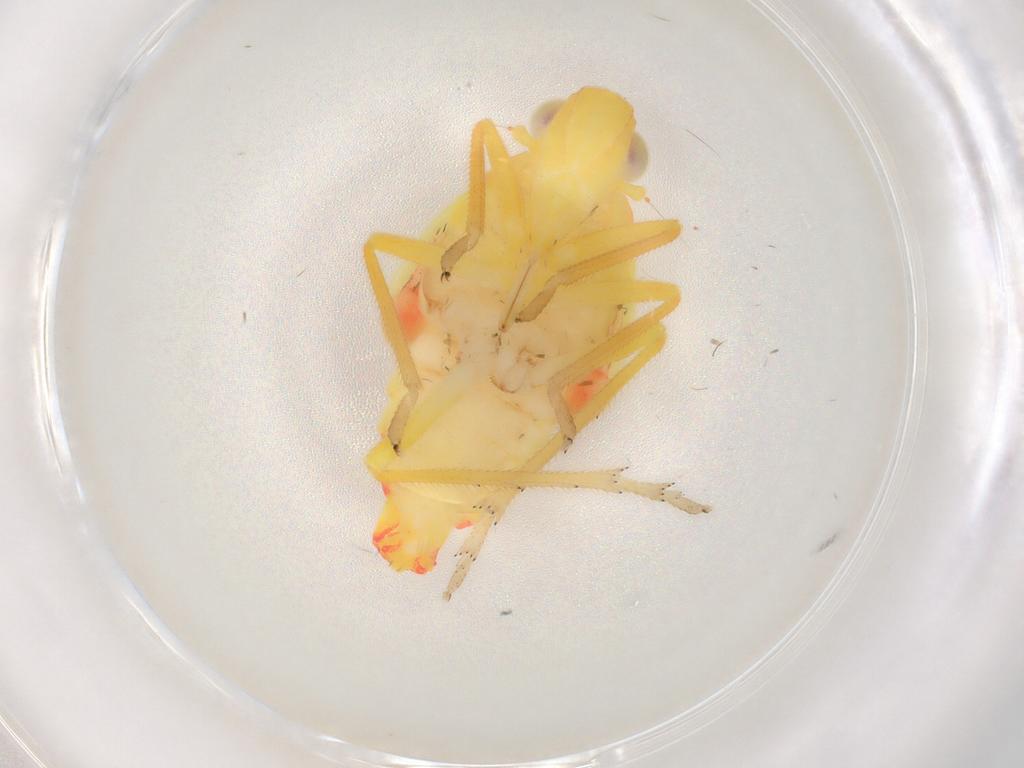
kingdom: Animalia
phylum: Arthropoda
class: Insecta
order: Hemiptera
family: Tropiduchidae
